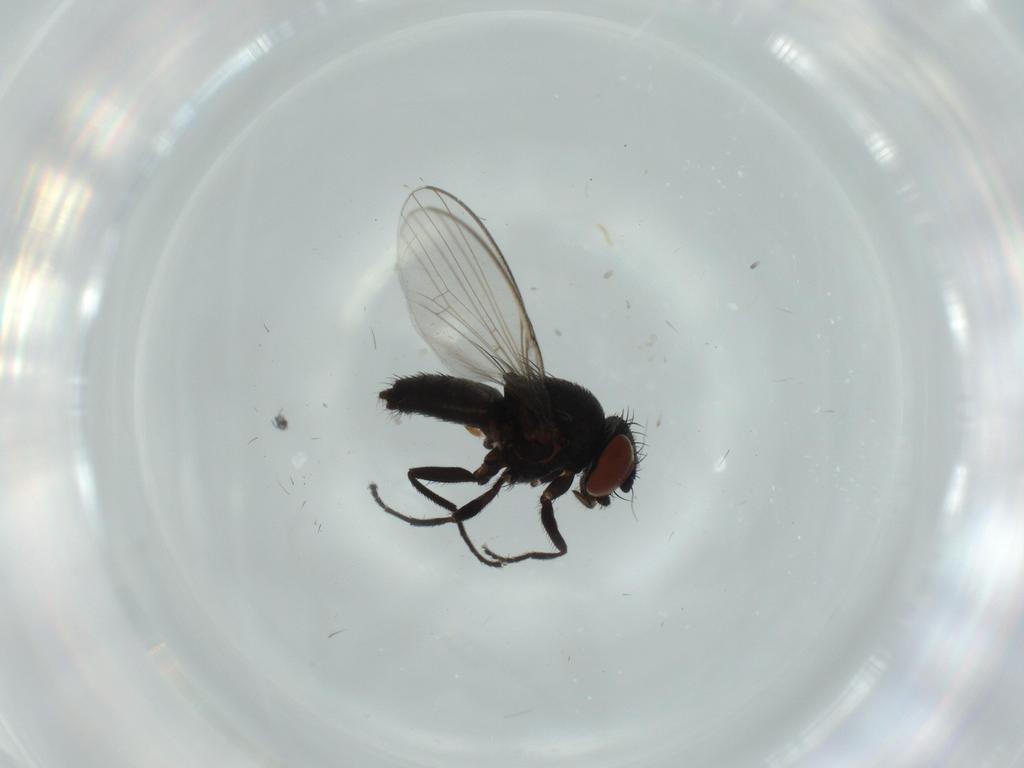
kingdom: Animalia
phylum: Arthropoda
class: Insecta
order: Diptera
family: Milichiidae
